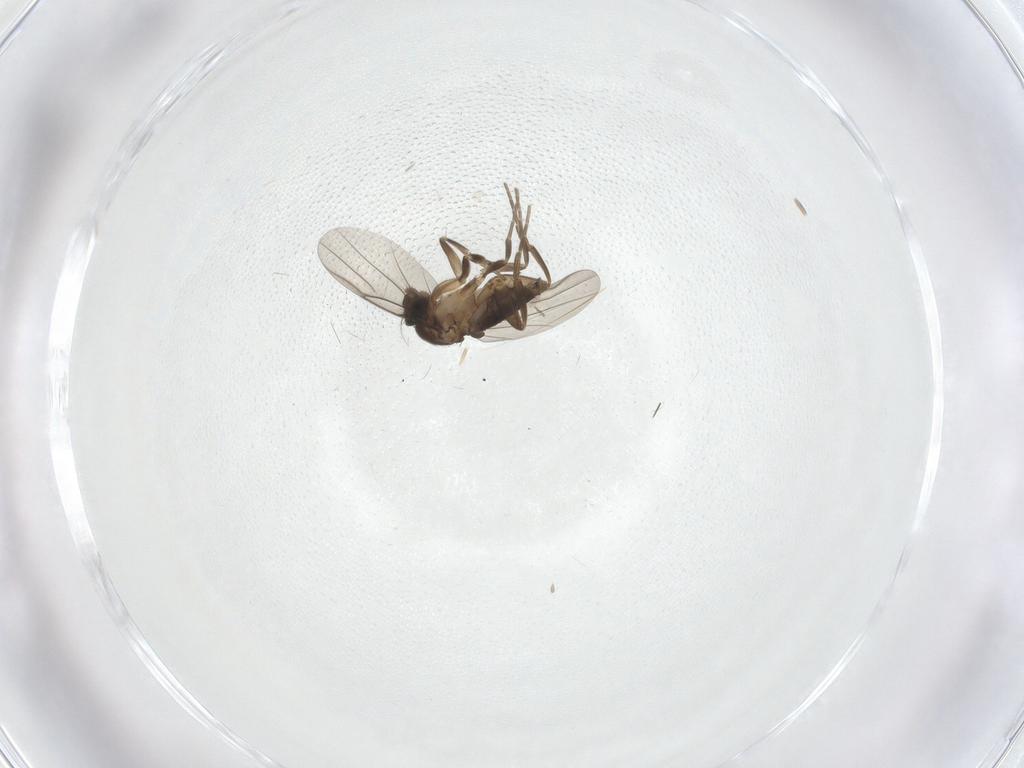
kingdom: Animalia
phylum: Arthropoda
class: Insecta
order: Diptera
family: Phoridae
